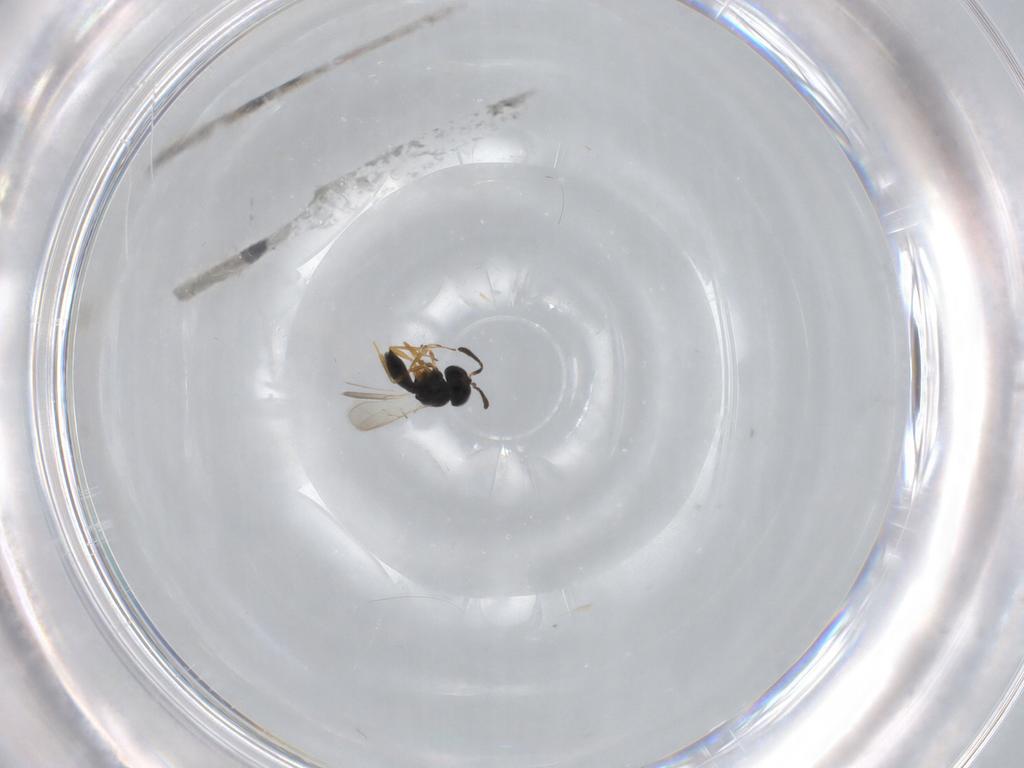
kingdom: Animalia
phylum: Arthropoda
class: Insecta
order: Hymenoptera
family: Scelionidae
